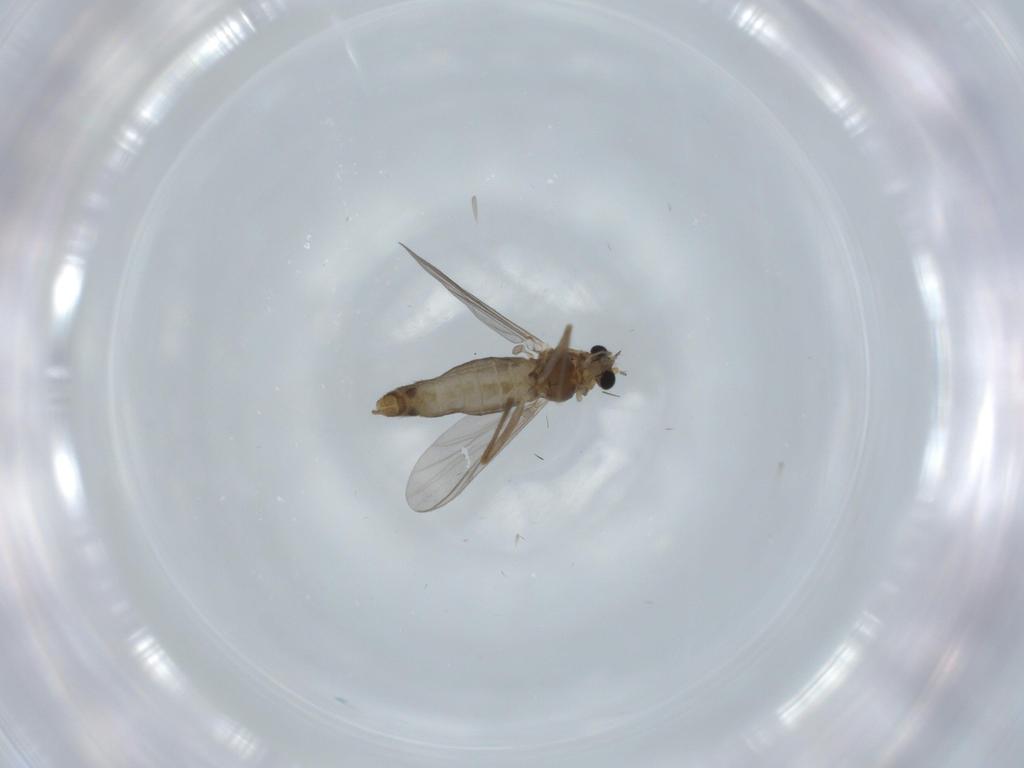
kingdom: Animalia
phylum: Arthropoda
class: Insecta
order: Diptera
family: Chironomidae
